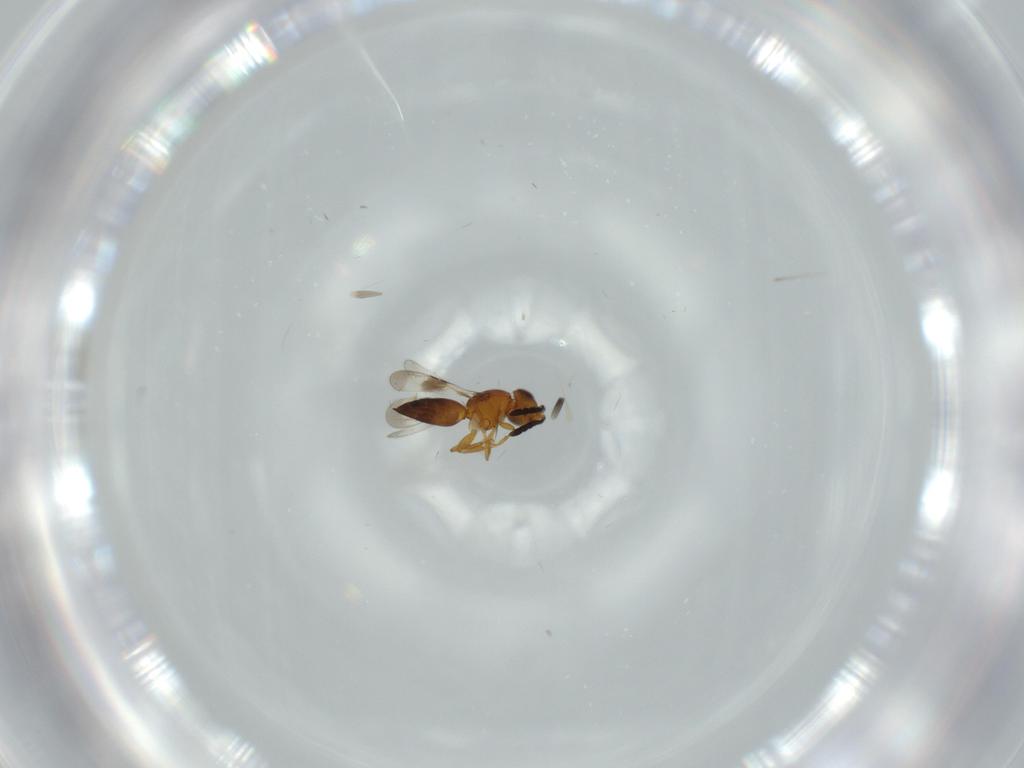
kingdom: Animalia
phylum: Arthropoda
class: Insecta
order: Hymenoptera
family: Ceraphronidae
